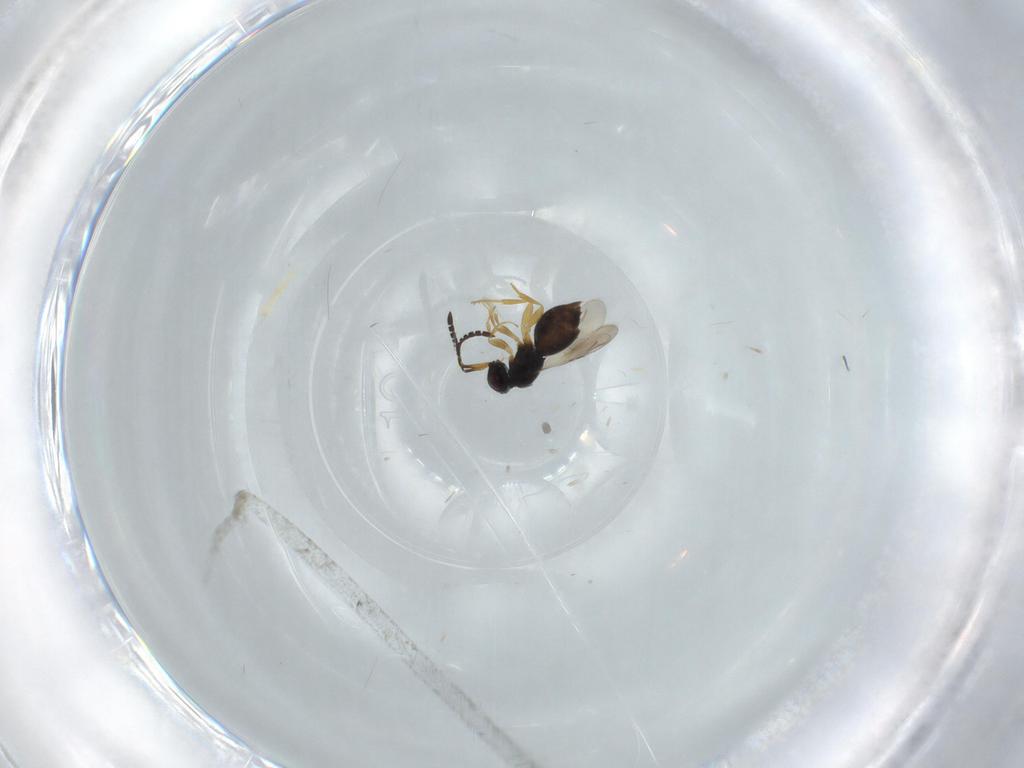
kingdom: Animalia
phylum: Arthropoda
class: Insecta
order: Hymenoptera
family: Ceraphronidae
